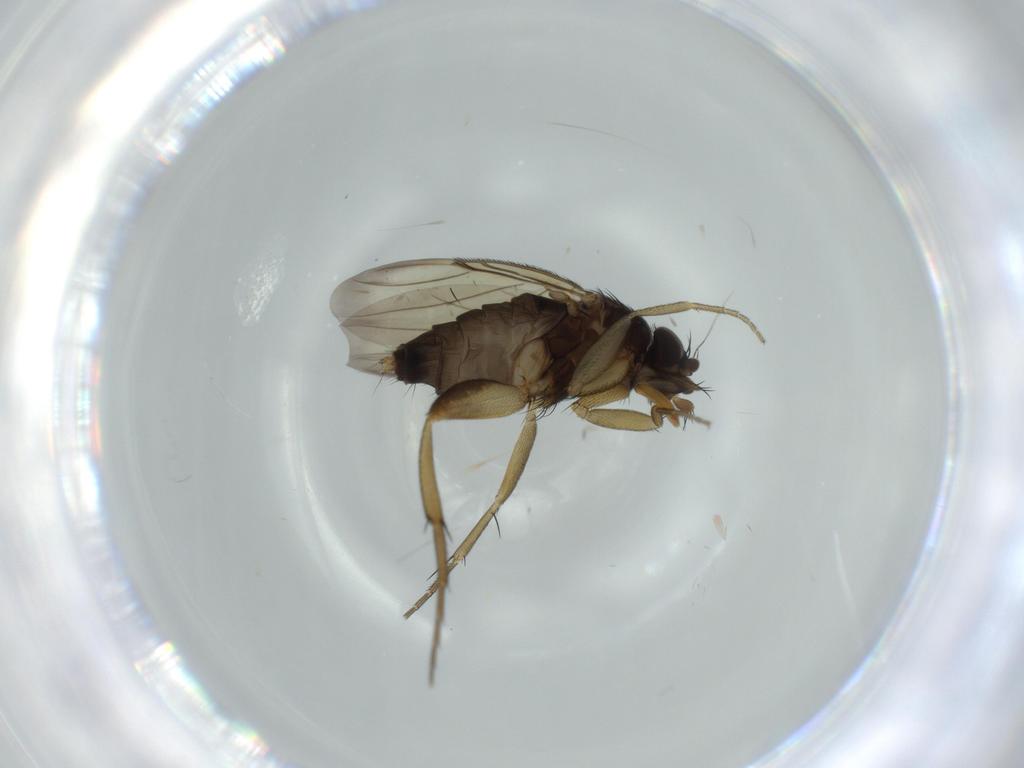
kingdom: Animalia
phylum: Arthropoda
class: Insecta
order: Diptera
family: Phoridae
